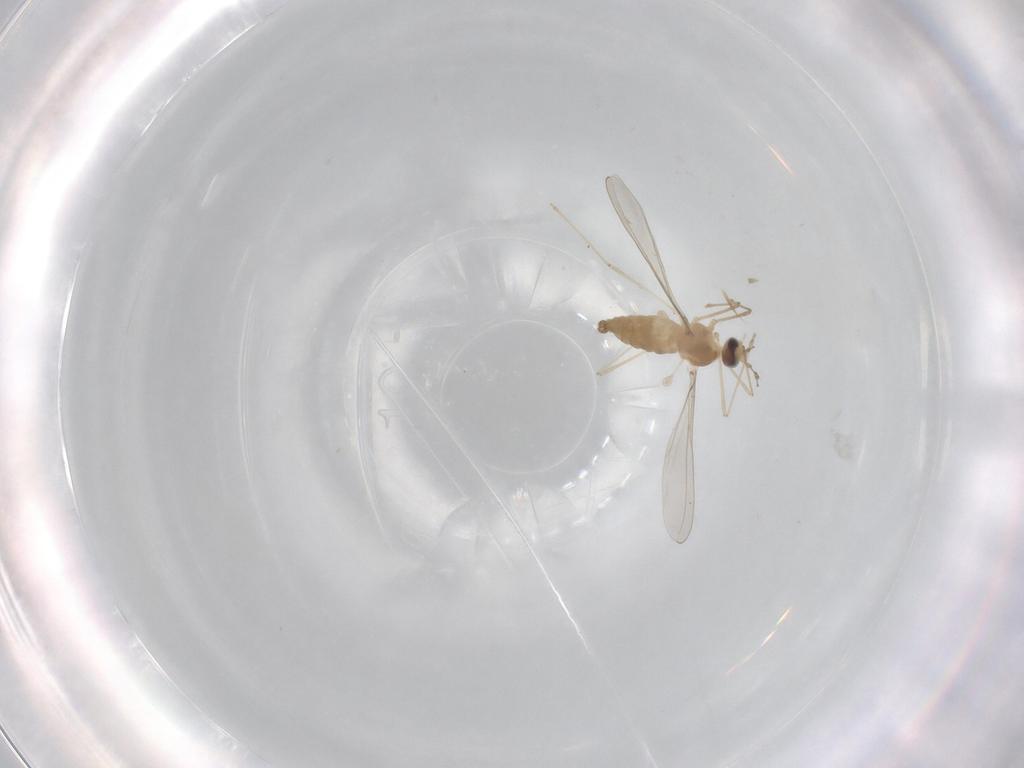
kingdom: Animalia
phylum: Arthropoda
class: Insecta
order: Diptera
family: Cecidomyiidae
